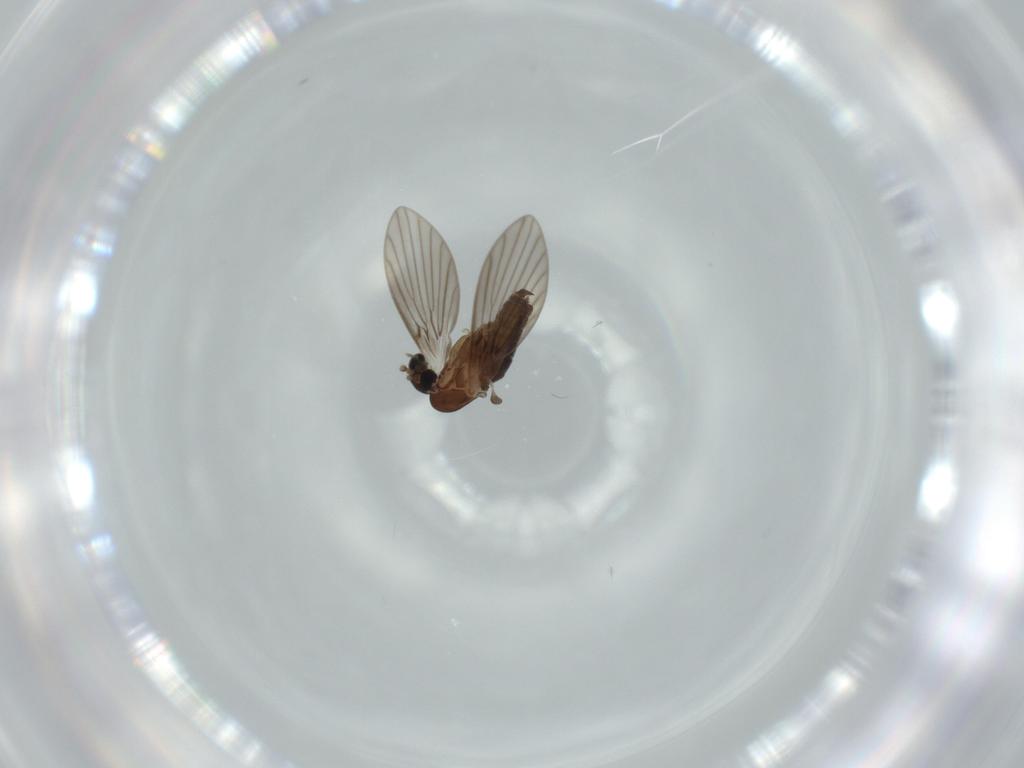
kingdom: Animalia
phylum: Arthropoda
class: Insecta
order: Diptera
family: Psychodidae
